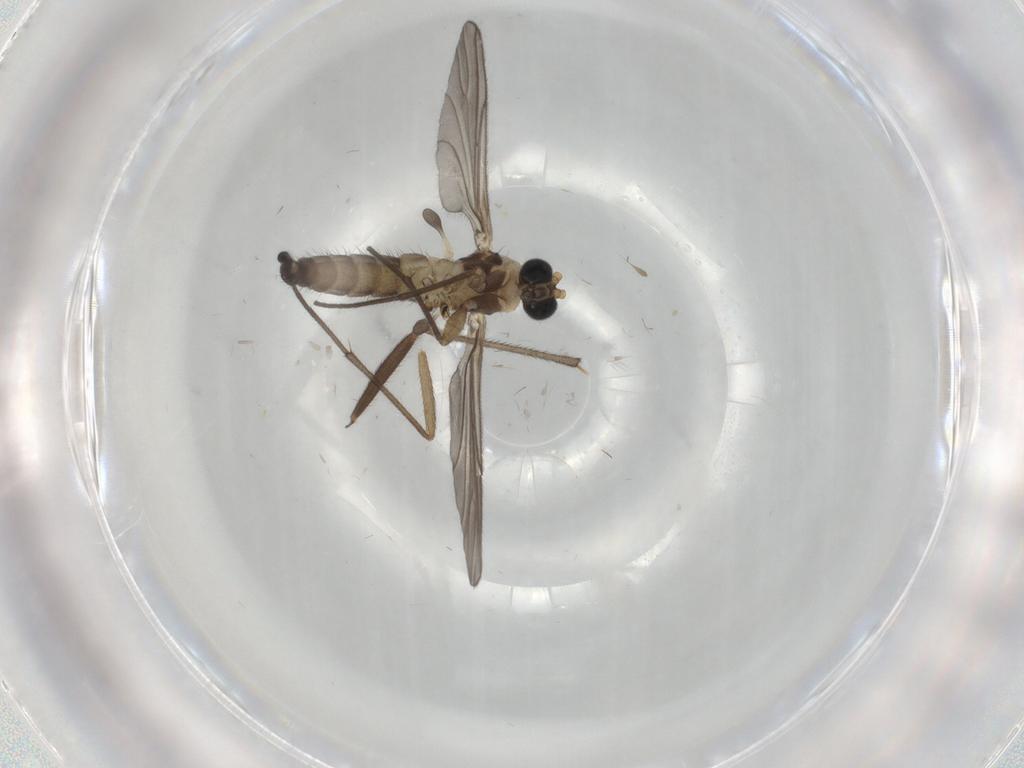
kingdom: Animalia
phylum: Arthropoda
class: Insecta
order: Diptera
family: Sciaridae
